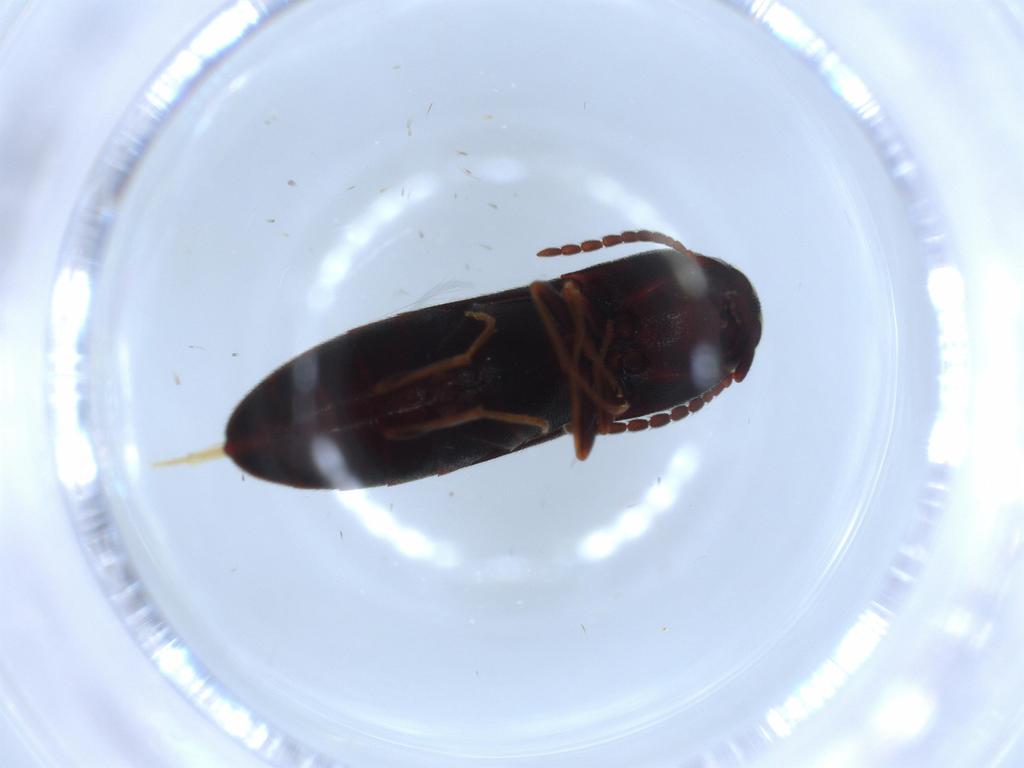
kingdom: Animalia
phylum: Arthropoda
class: Insecta
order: Coleoptera
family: Eucnemidae
